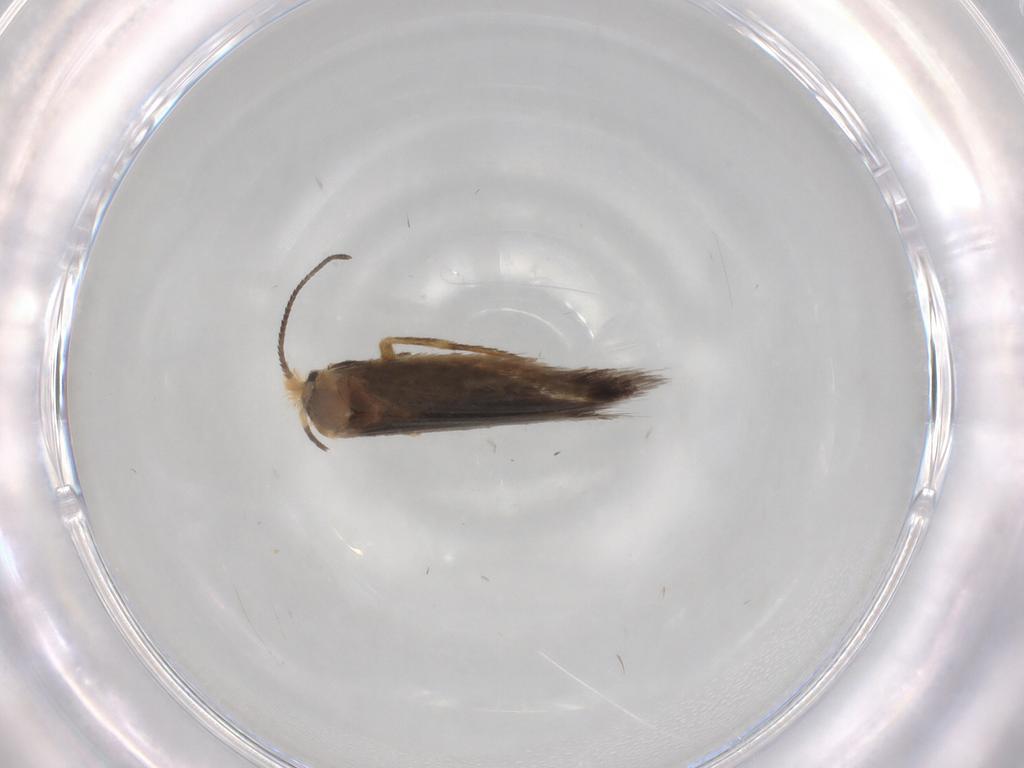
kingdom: Animalia
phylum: Arthropoda
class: Insecta
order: Lepidoptera
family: Nepticulidae
